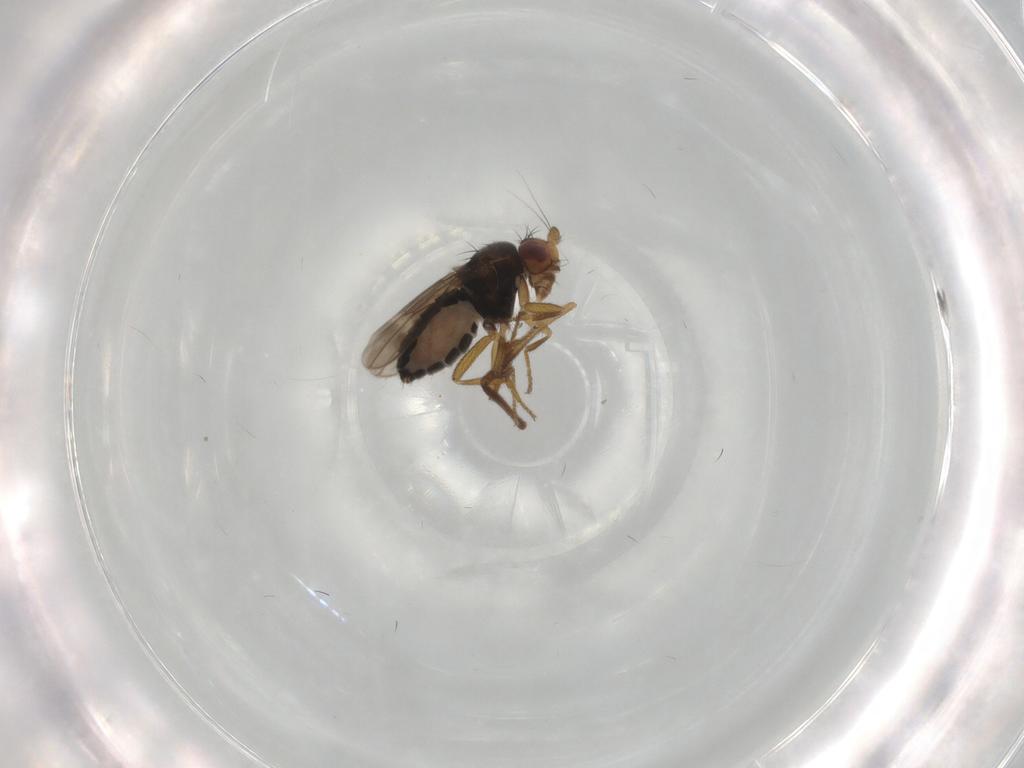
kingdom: Animalia
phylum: Arthropoda
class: Insecta
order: Diptera
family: Sphaeroceridae
